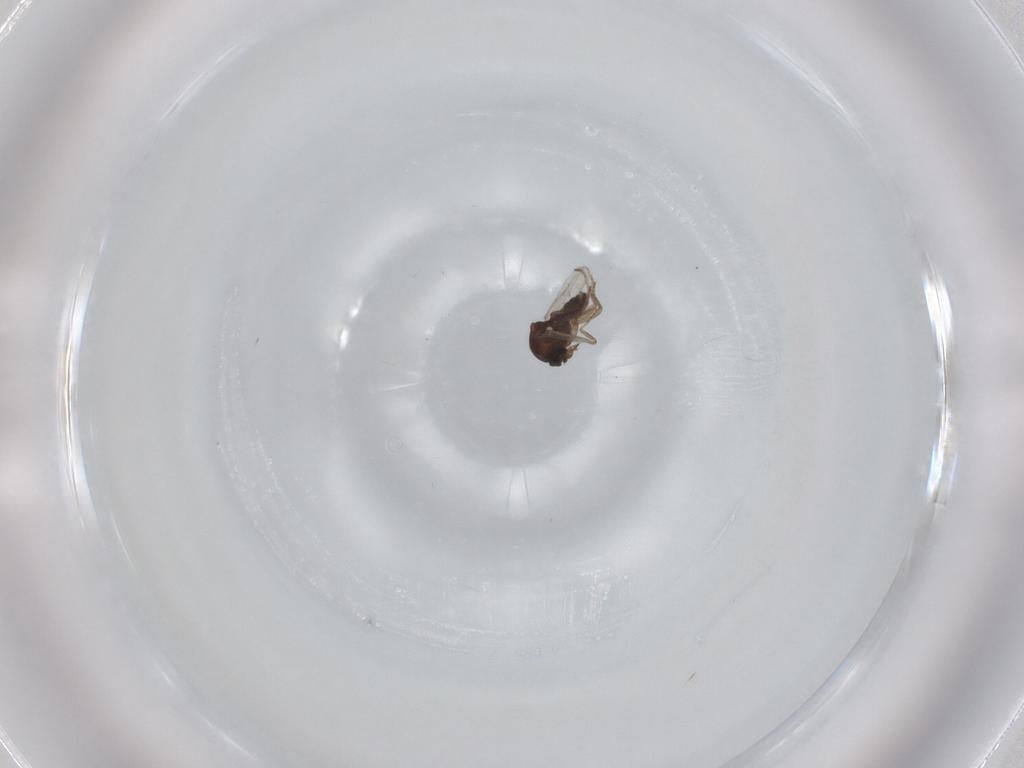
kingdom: Animalia
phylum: Arthropoda
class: Insecta
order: Diptera
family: Ceratopogonidae
